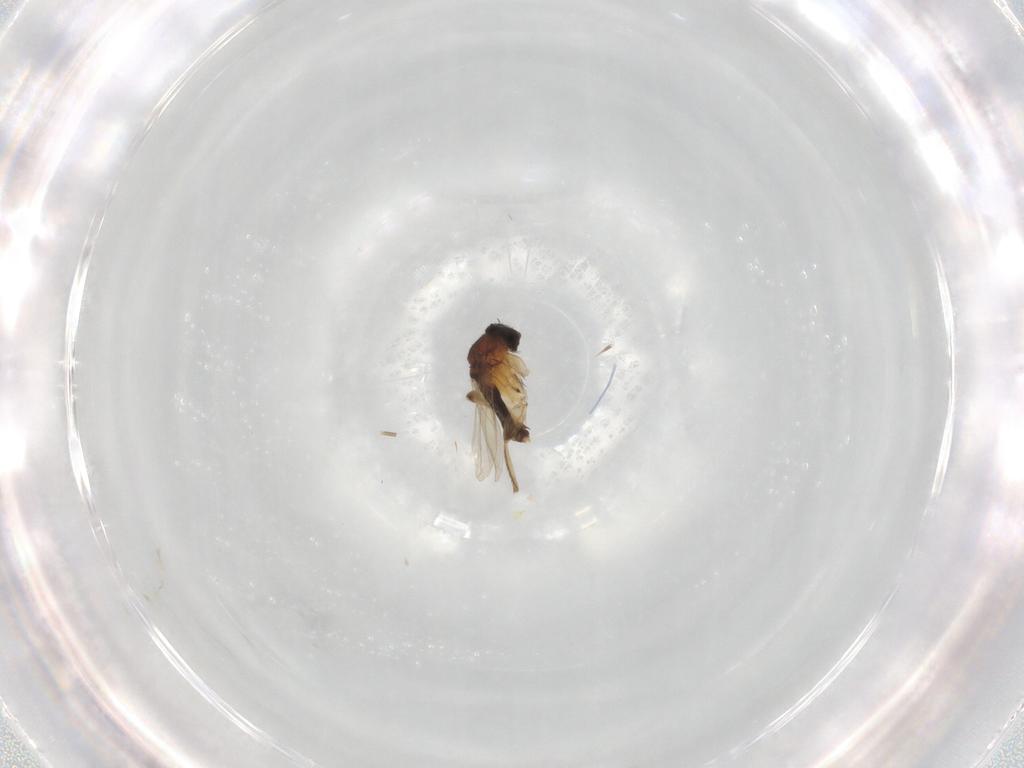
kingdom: Animalia
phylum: Arthropoda
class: Insecta
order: Diptera
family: Phoridae
